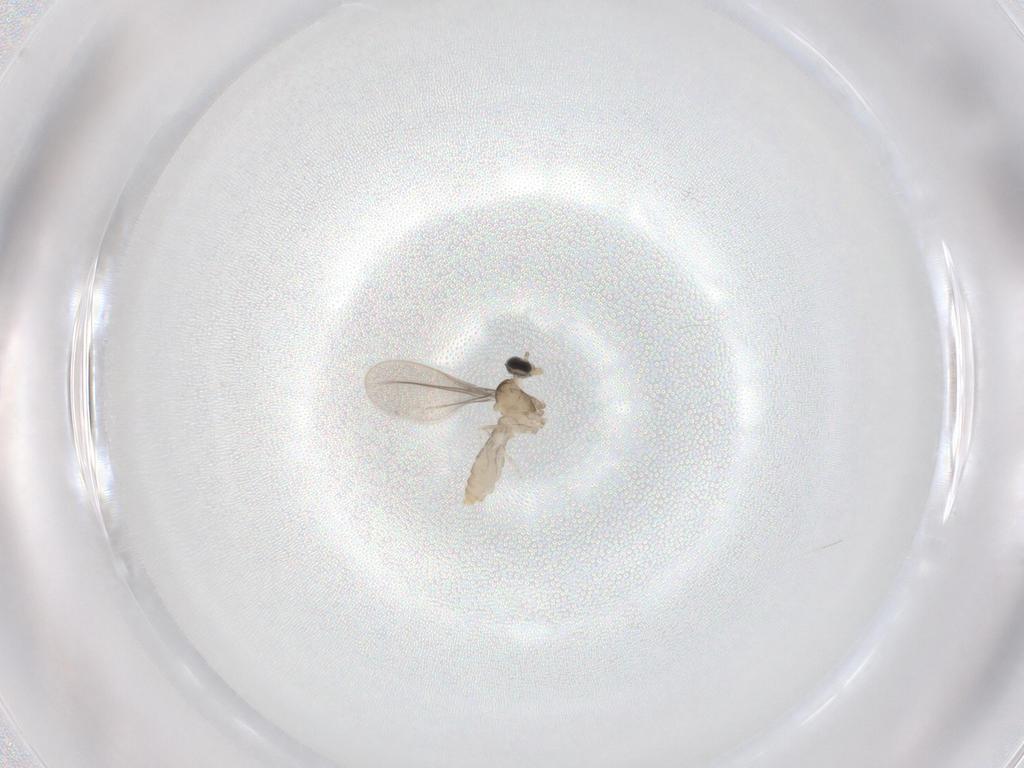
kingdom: Animalia
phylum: Arthropoda
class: Insecta
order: Diptera
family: Cecidomyiidae
